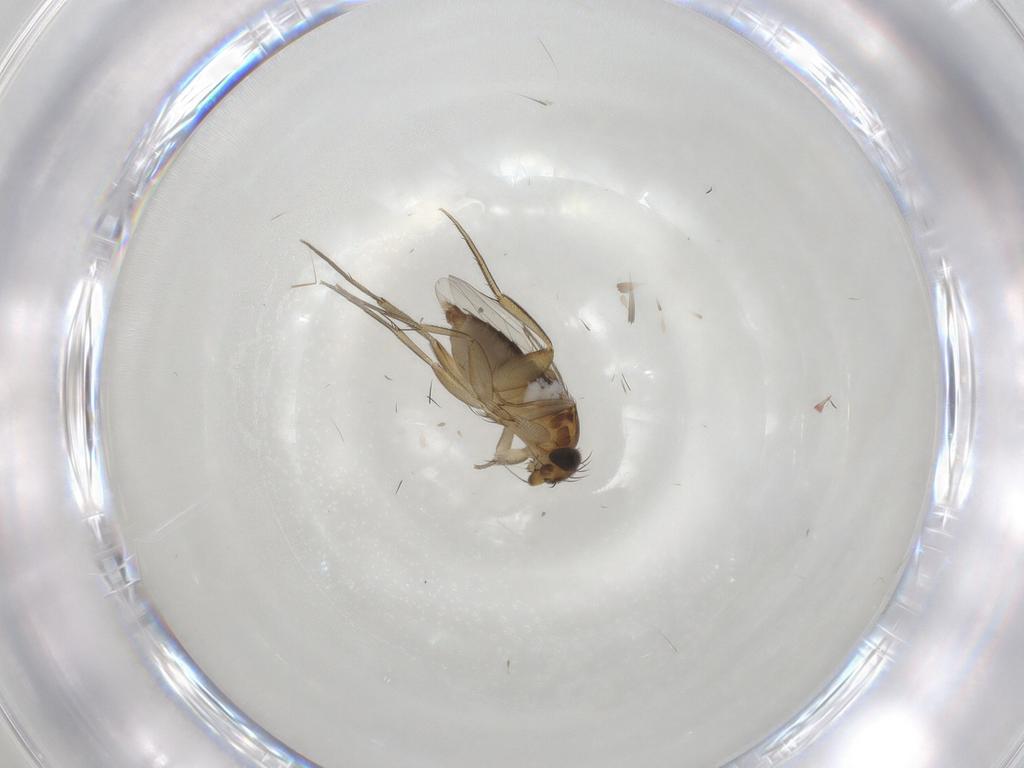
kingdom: Animalia
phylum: Arthropoda
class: Insecta
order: Diptera
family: Phoridae
